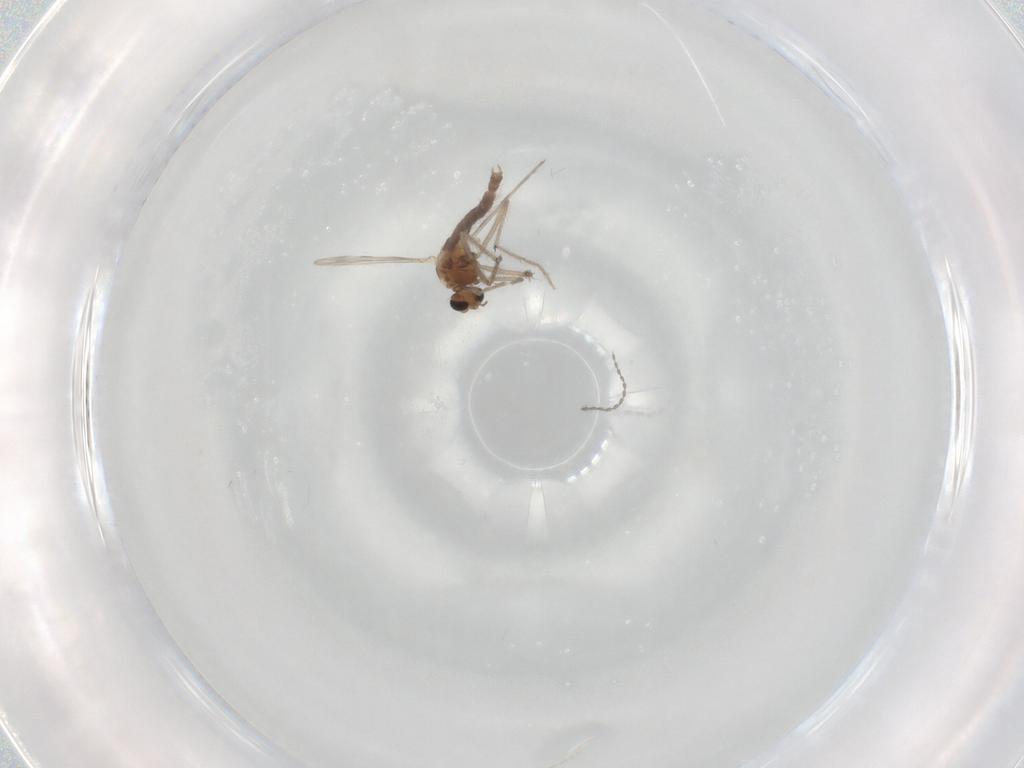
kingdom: Animalia
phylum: Arthropoda
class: Insecta
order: Diptera
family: Chironomidae
